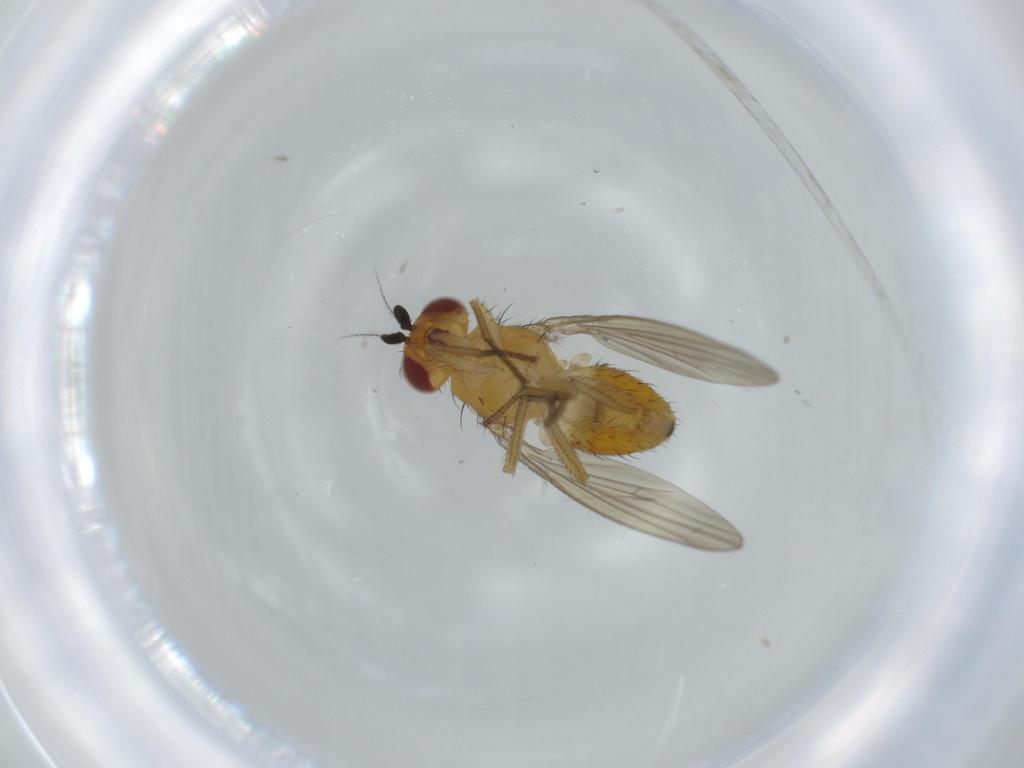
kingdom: Animalia
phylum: Arthropoda
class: Insecta
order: Diptera
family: Lauxaniidae
